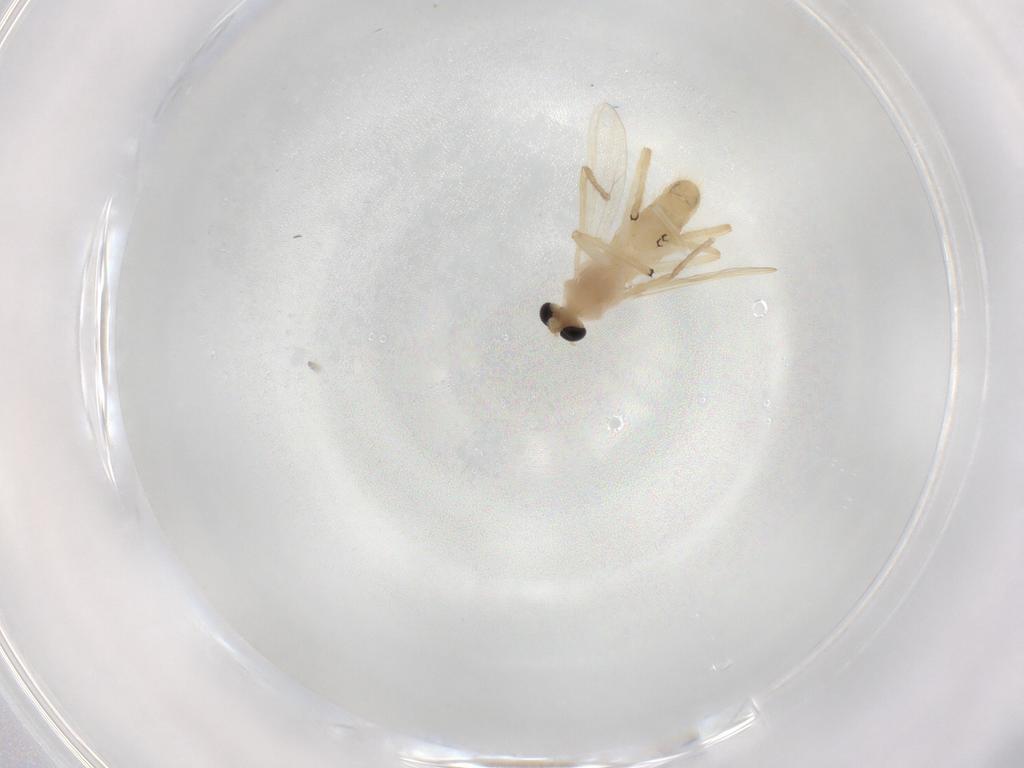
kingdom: Animalia
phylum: Arthropoda
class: Insecta
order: Diptera
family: Chironomidae
